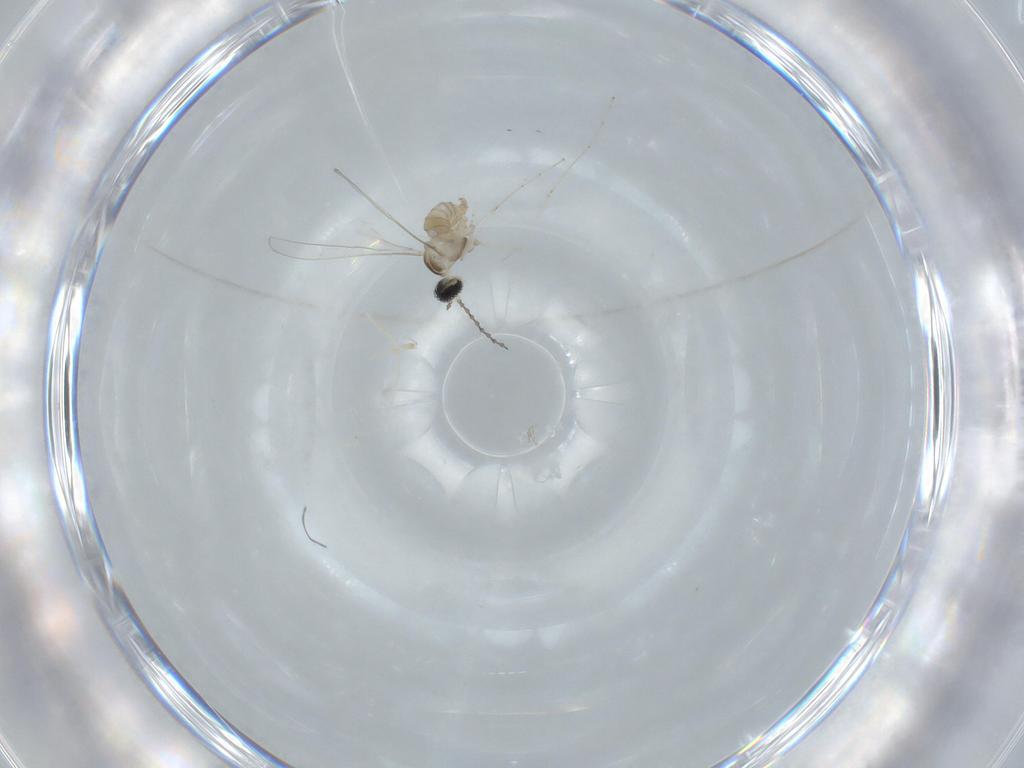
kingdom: Animalia
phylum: Arthropoda
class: Insecta
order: Diptera
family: Cecidomyiidae
